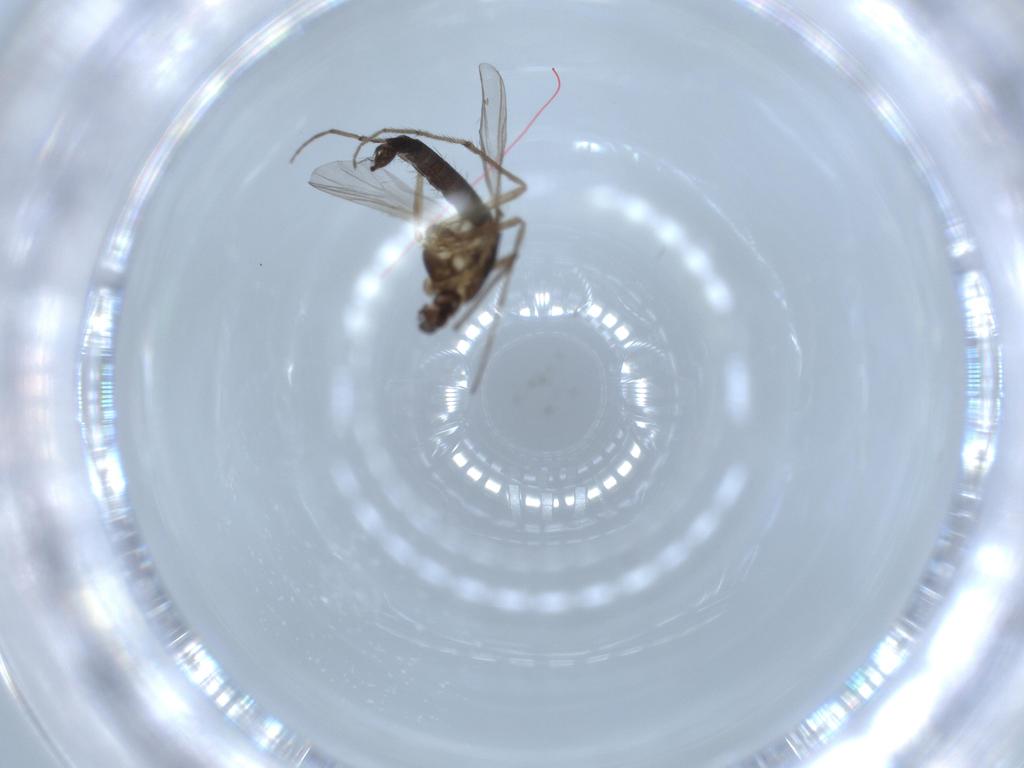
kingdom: Animalia
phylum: Arthropoda
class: Insecta
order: Diptera
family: Chironomidae
